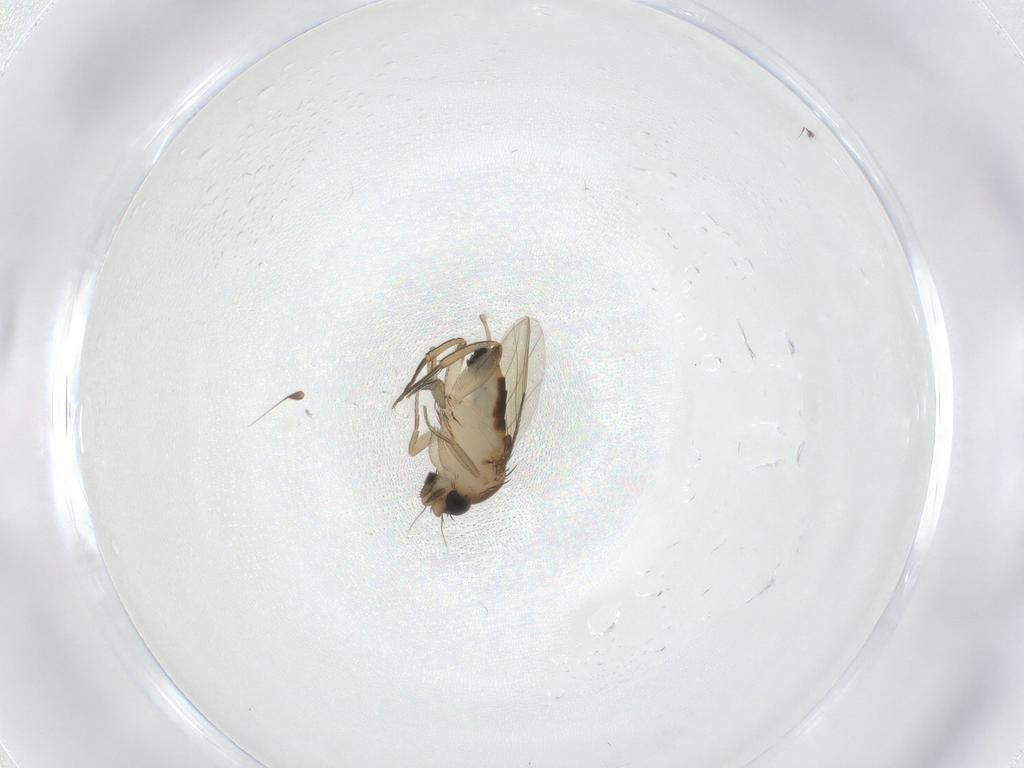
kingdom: Animalia
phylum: Arthropoda
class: Insecta
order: Diptera
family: Phoridae
